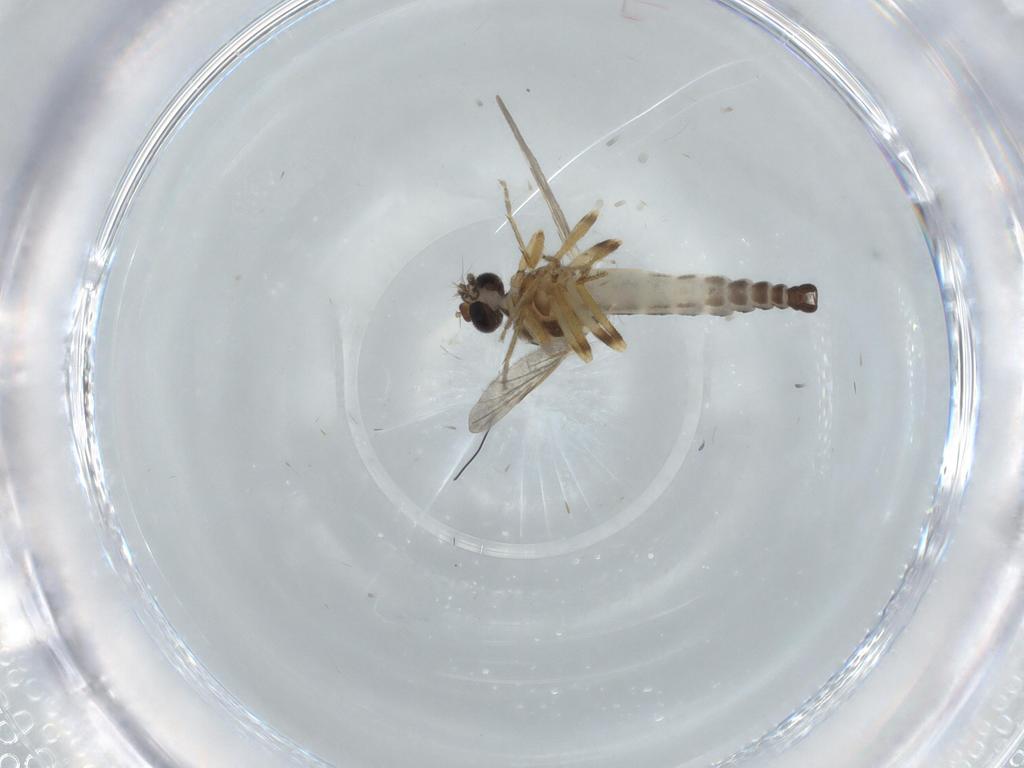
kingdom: Animalia
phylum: Arthropoda
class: Insecta
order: Diptera
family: Ceratopogonidae
